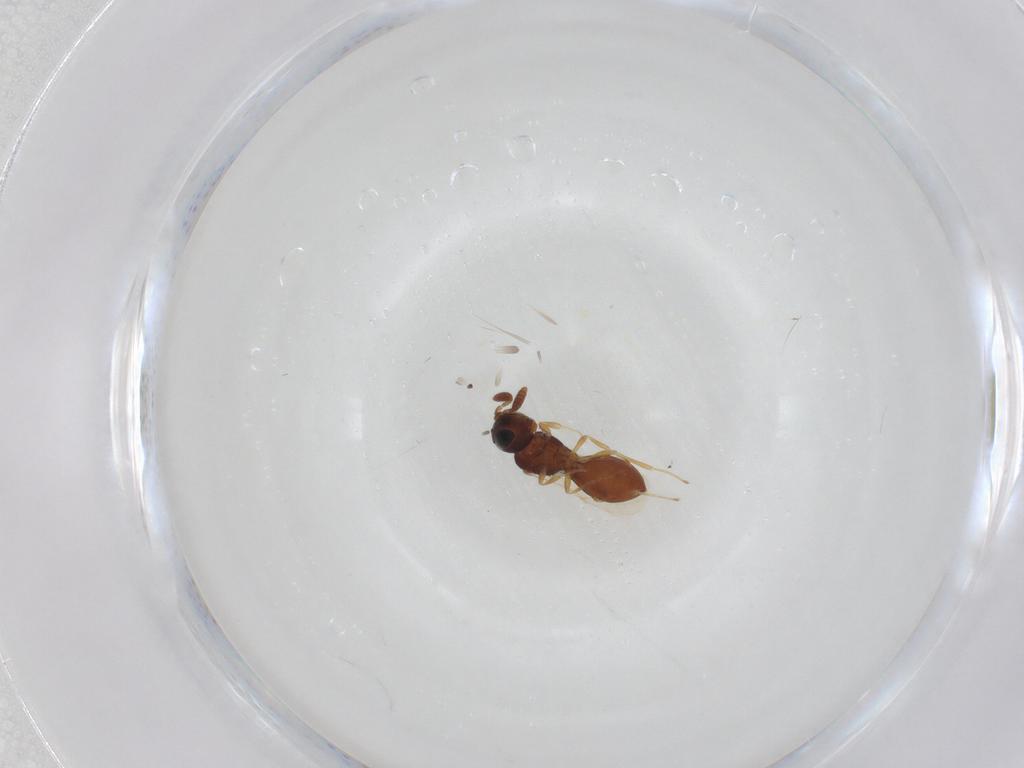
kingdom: Animalia
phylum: Arthropoda
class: Insecta
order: Hymenoptera
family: Scelionidae
